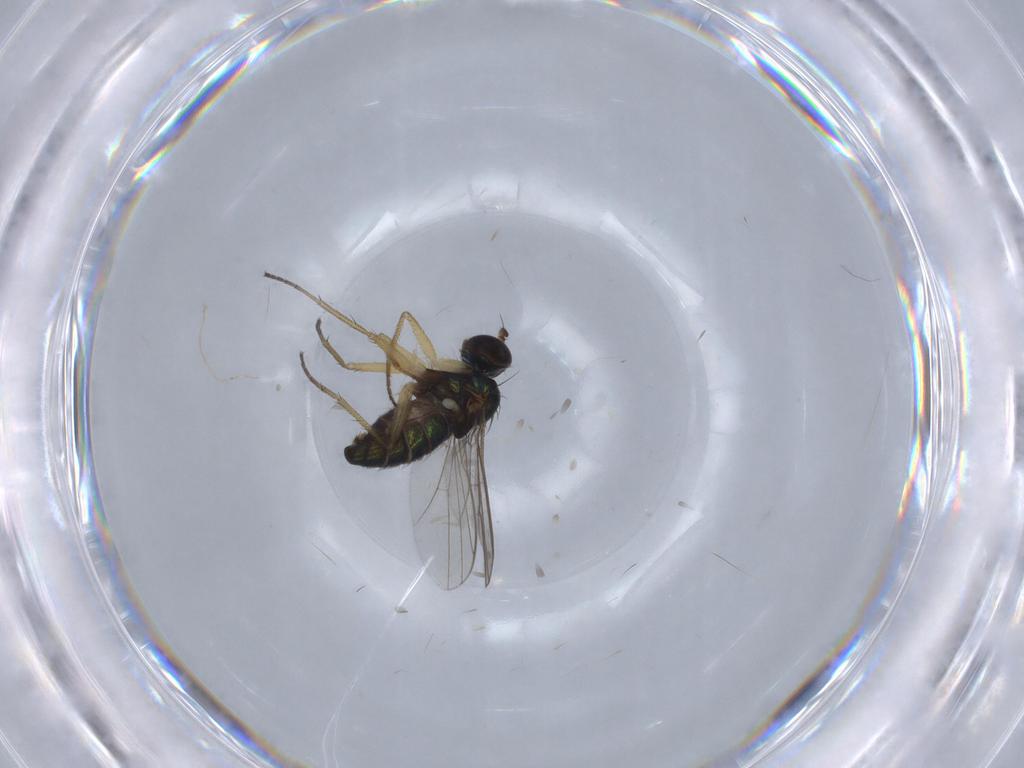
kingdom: Animalia
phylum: Arthropoda
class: Insecta
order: Diptera
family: Dolichopodidae
